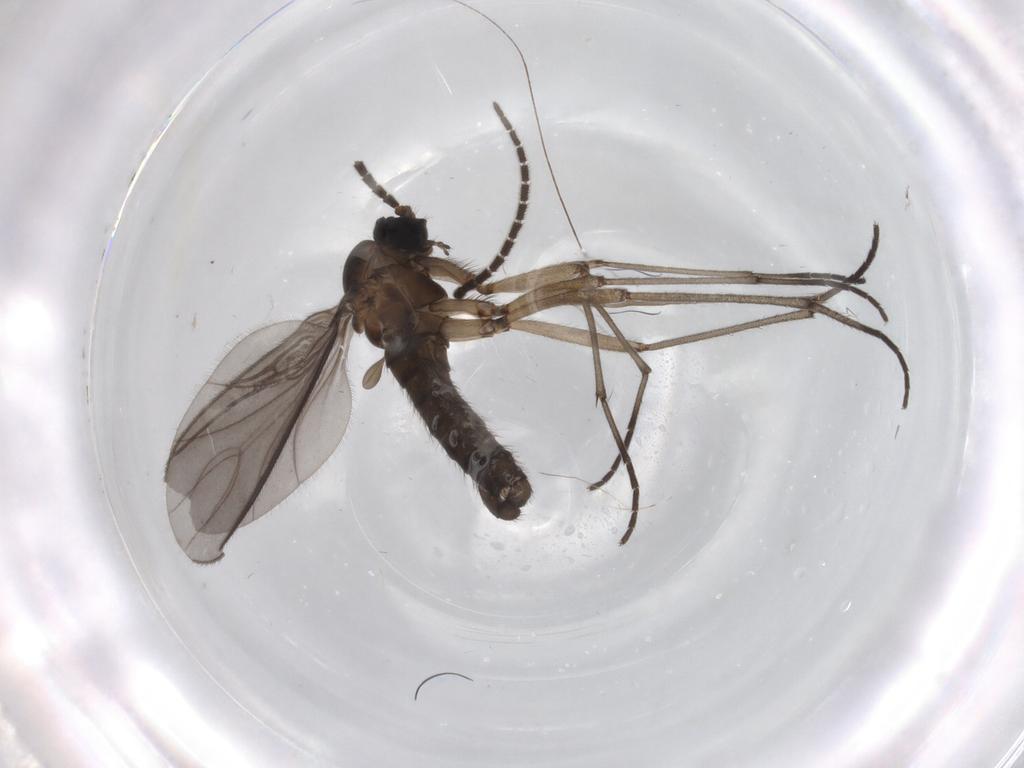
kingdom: Animalia
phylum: Arthropoda
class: Insecta
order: Diptera
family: Sciaridae
